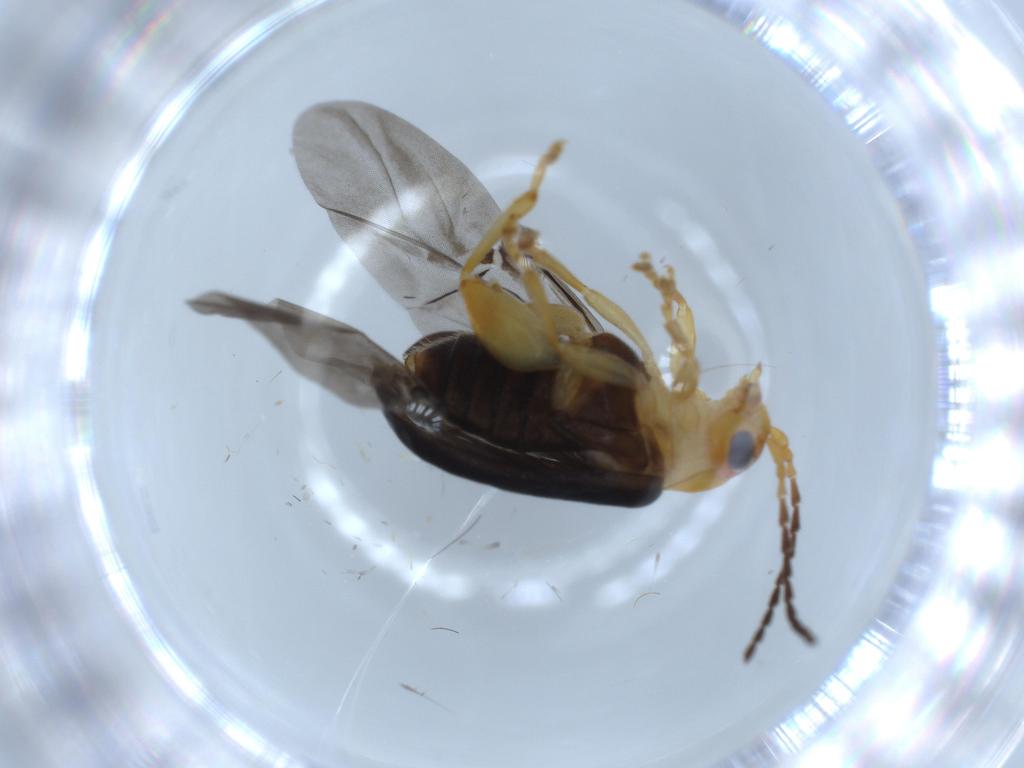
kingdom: Animalia
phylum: Arthropoda
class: Insecta
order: Coleoptera
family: Chrysomelidae
